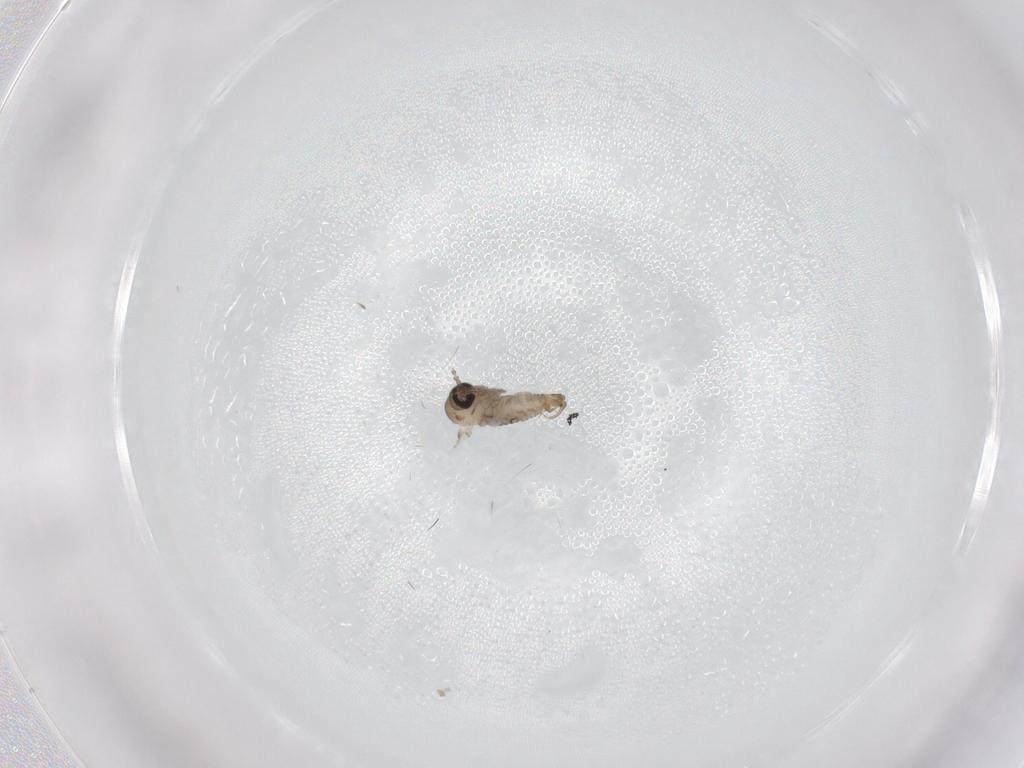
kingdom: Animalia
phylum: Arthropoda
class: Insecta
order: Diptera
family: Psychodidae
